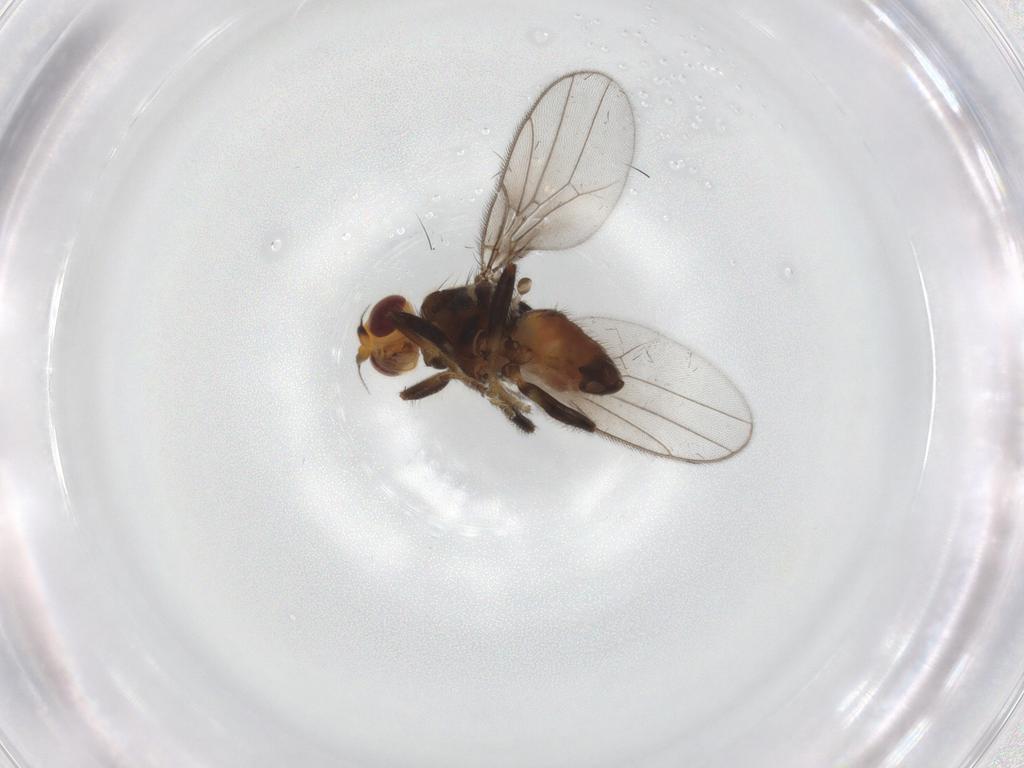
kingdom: Animalia
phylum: Arthropoda
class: Insecta
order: Diptera
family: Chloropidae
